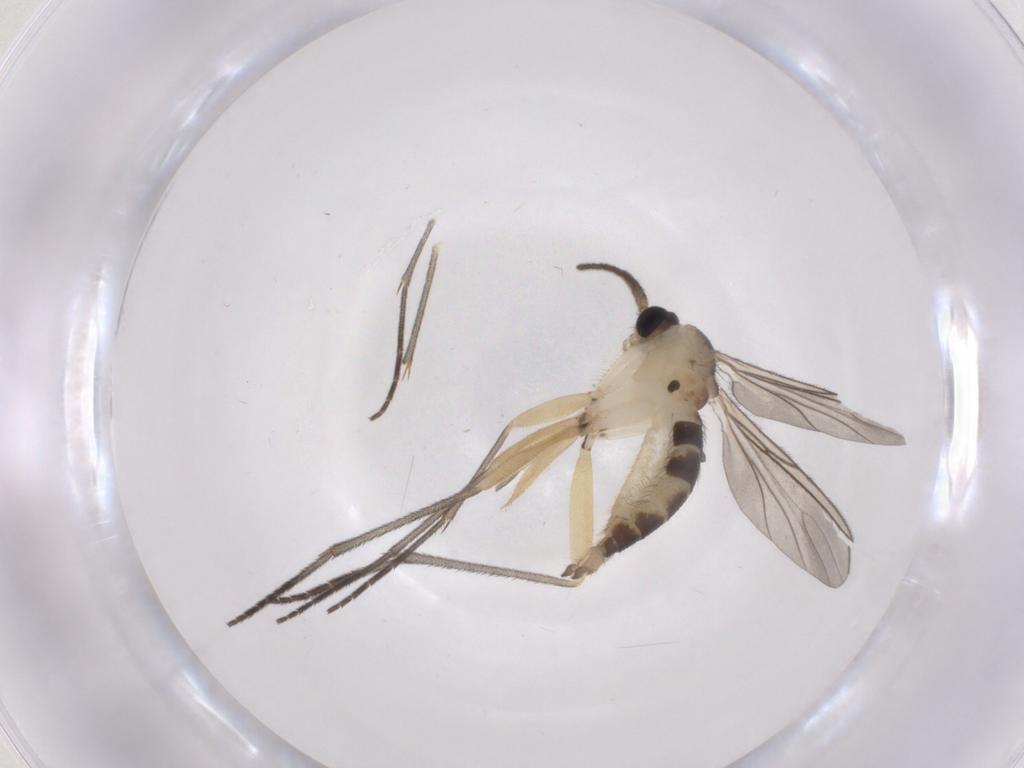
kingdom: Animalia
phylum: Arthropoda
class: Insecta
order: Diptera
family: Sciaridae
